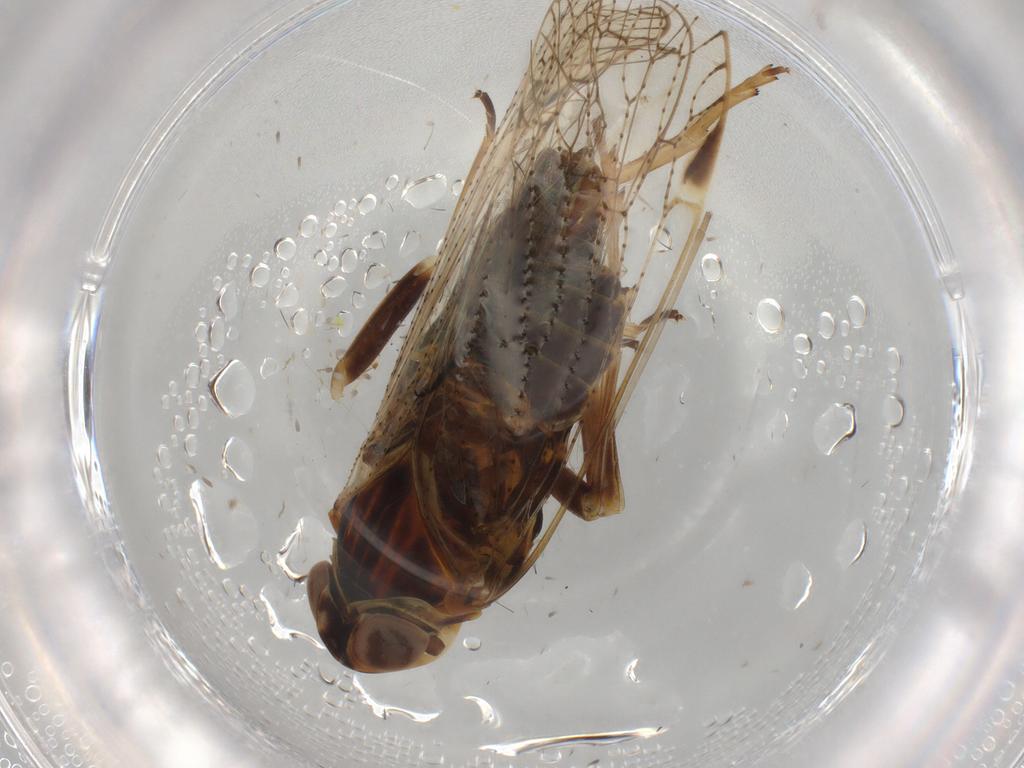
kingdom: Animalia
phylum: Arthropoda
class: Insecta
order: Hemiptera
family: Cixiidae
